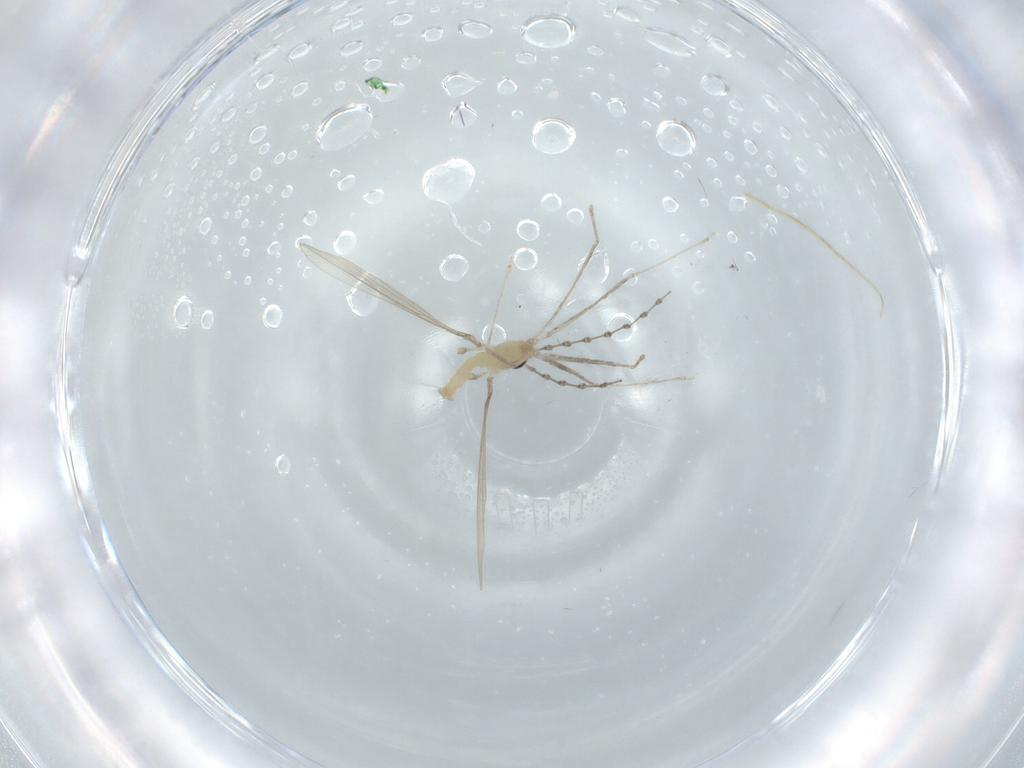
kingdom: Animalia
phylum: Arthropoda
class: Insecta
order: Diptera
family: Cecidomyiidae
